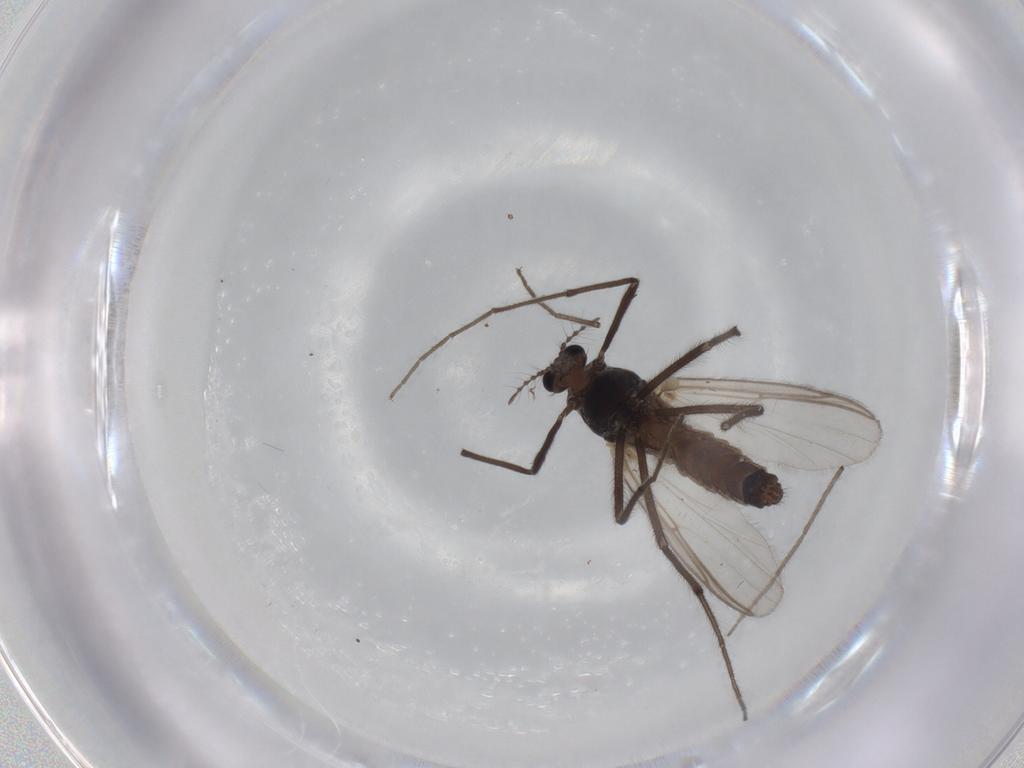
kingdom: Animalia
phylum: Arthropoda
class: Insecta
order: Diptera
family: Chironomidae
